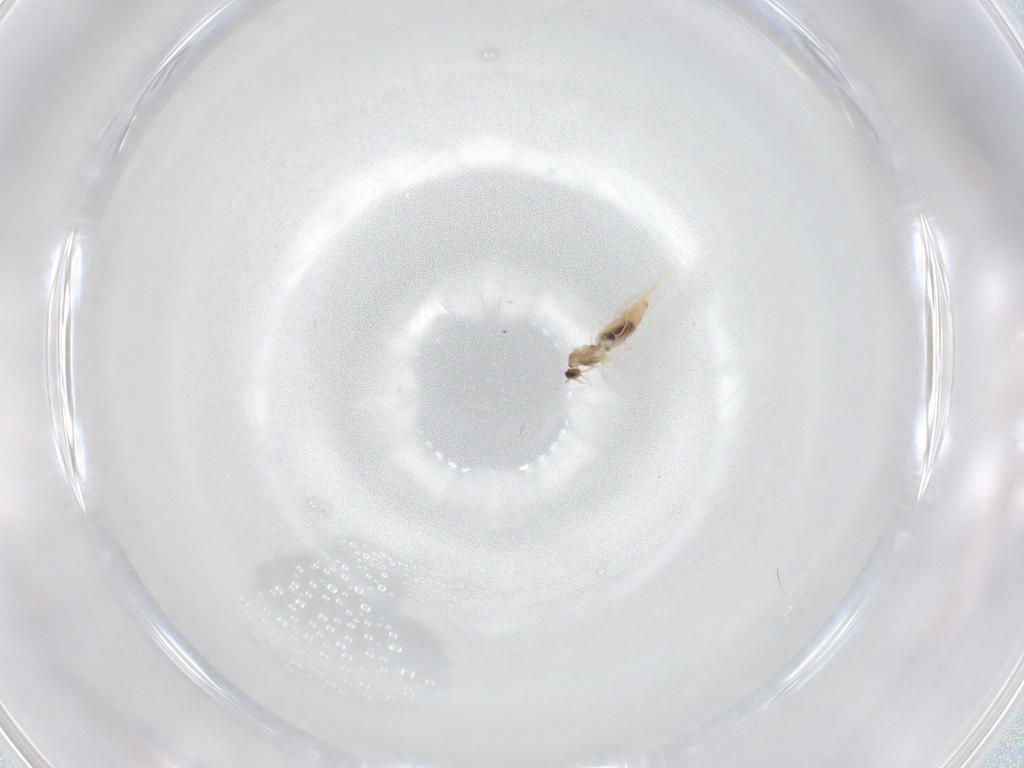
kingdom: Animalia
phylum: Arthropoda
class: Insecta
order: Diptera
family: Cecidomyiidae
